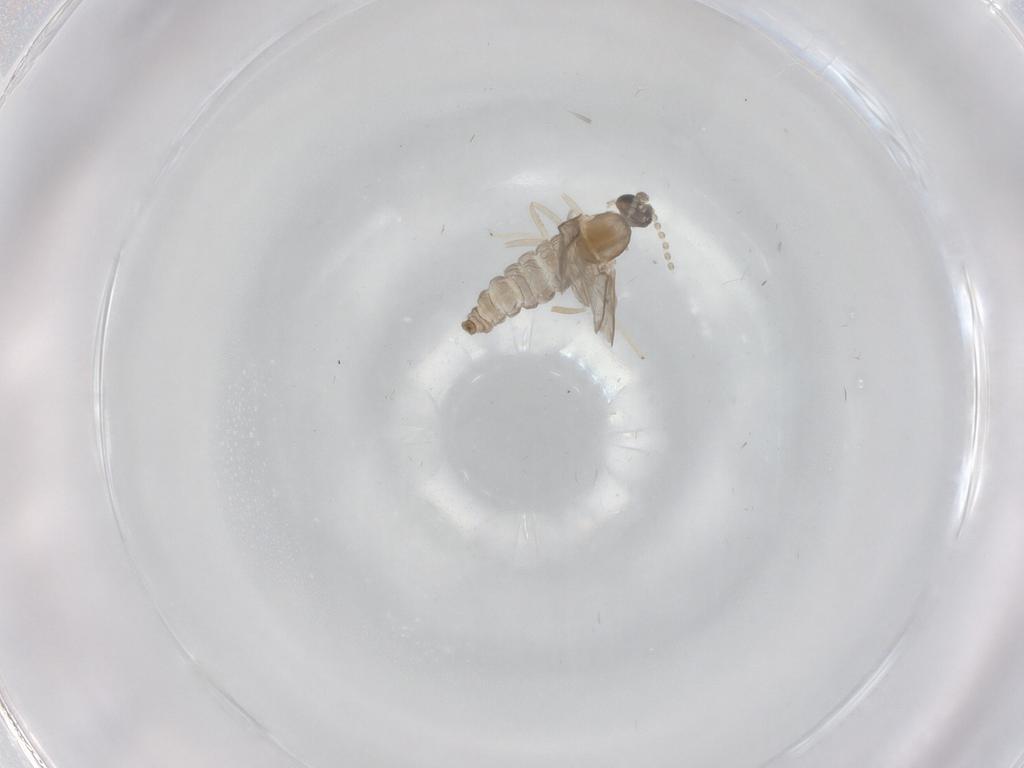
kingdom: Animalia
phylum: Arthropoda
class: Insecta
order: Diptera
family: Cecidomyiidae
